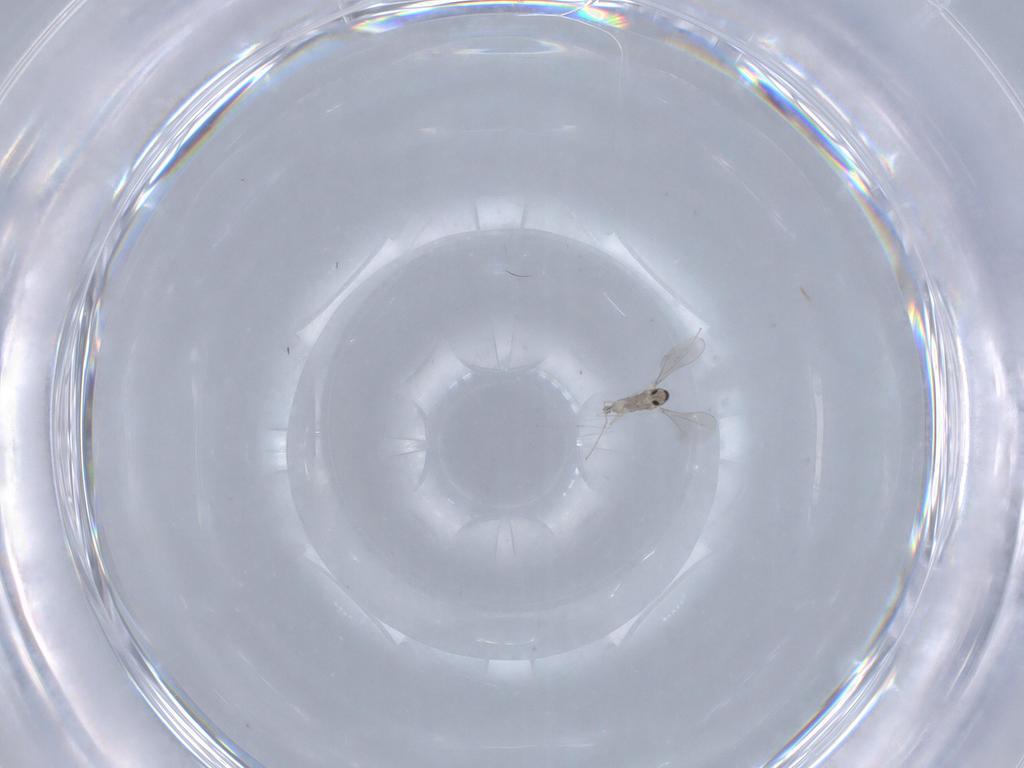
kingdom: Animalia
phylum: Arthropoda
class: Insecta
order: Diptera
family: Cecidomyiidae
